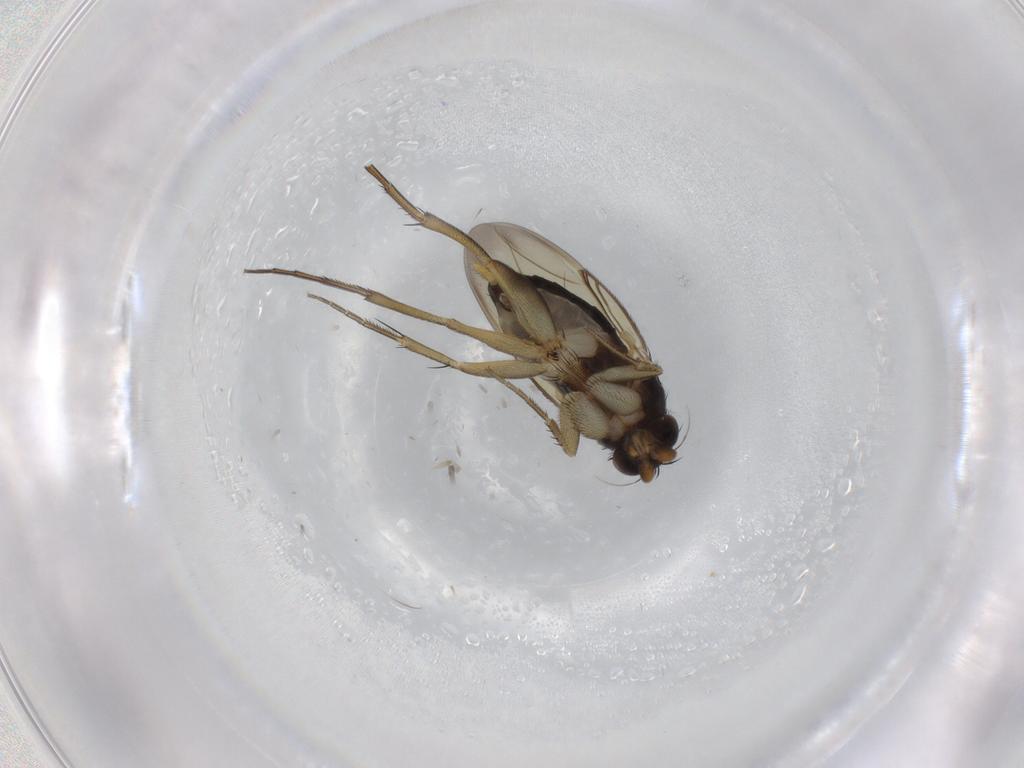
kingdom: Animalia
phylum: Arthropoda
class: Insecta
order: Diptera
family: Phoridae
